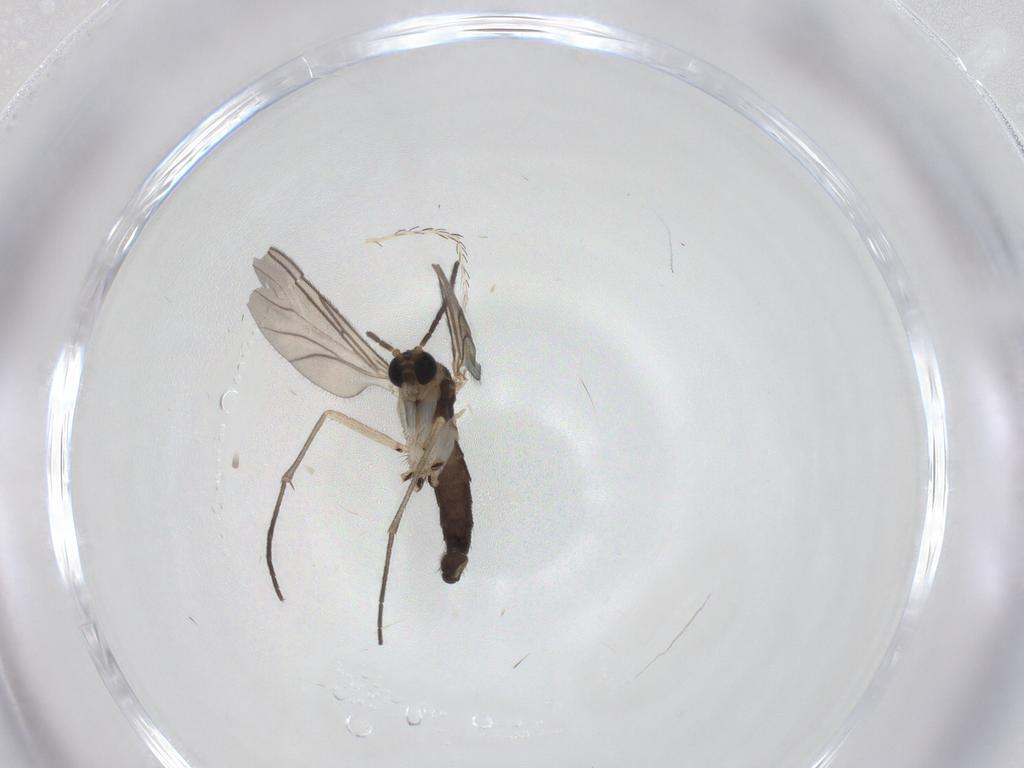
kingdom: Animalia
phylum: Arthropoda
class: Insecta
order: Diptera
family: Sciaridae
